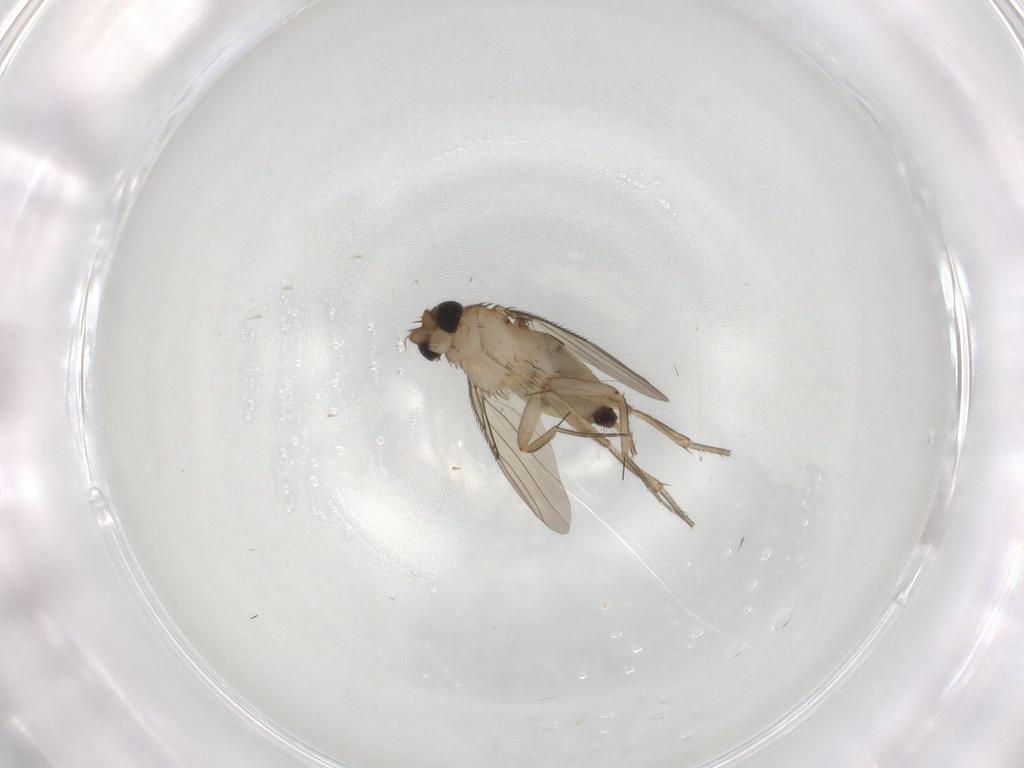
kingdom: Animalia
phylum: Arthropoda
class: Insecta
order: Diptera
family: Phoridae
